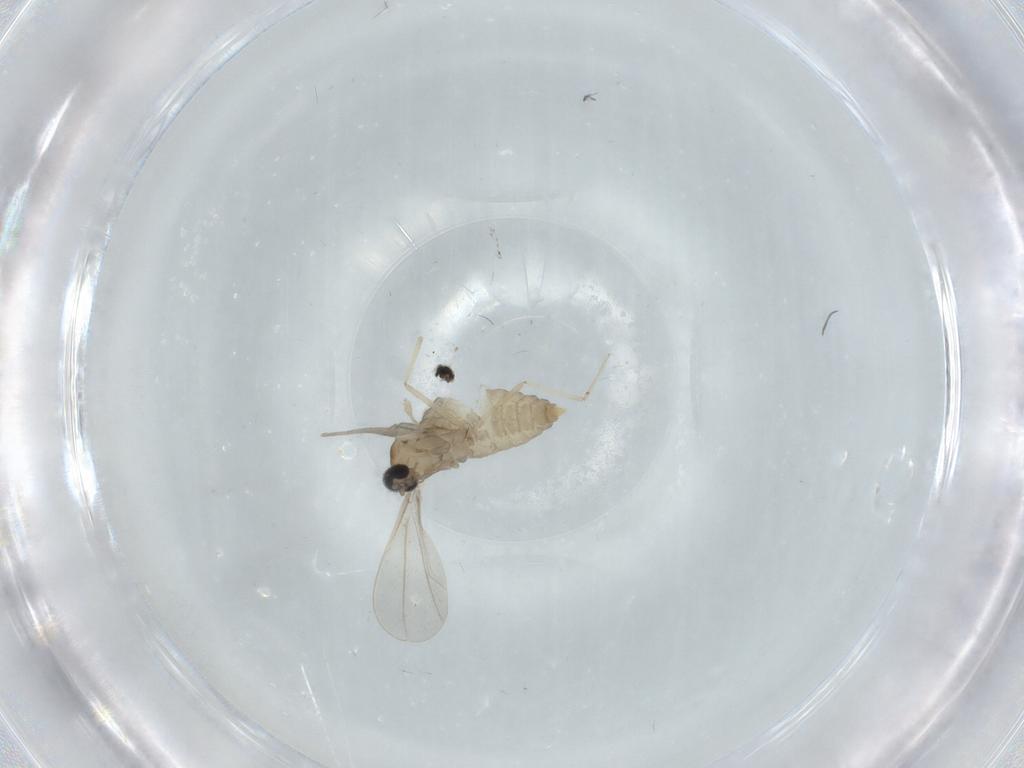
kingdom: Animalia
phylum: Arthropoda
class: Insecta
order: Diptera
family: Cecidomyiidae
